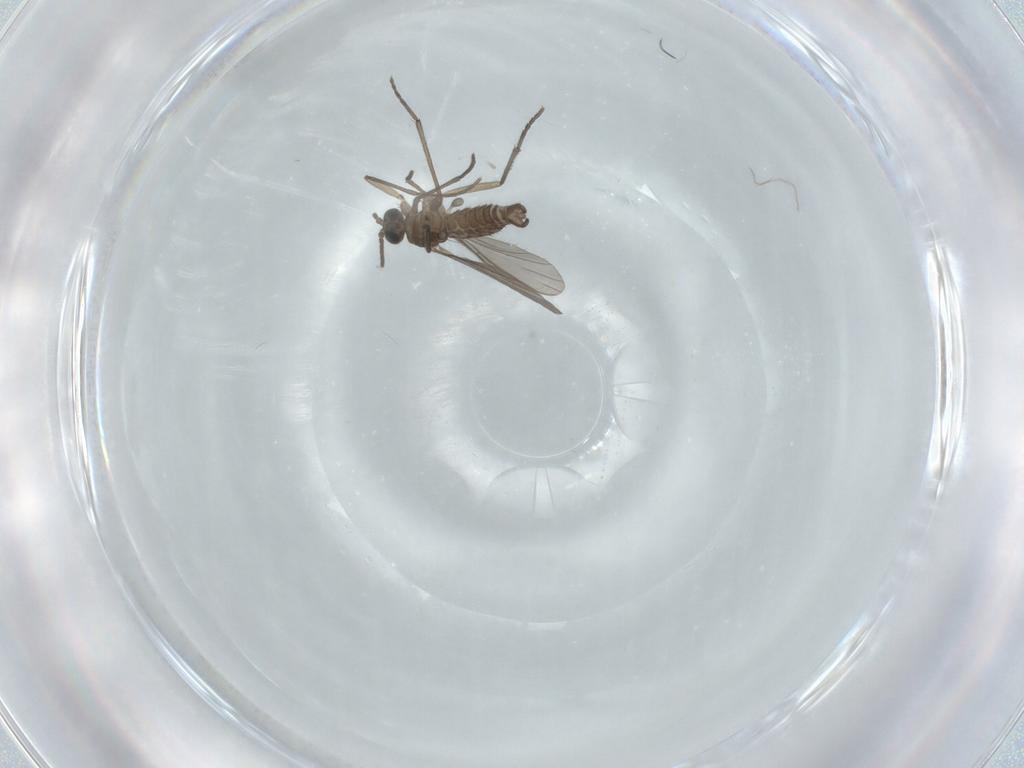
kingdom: Animalia
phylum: Arthropoda
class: Insecta
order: Diptera
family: Sciaridae
